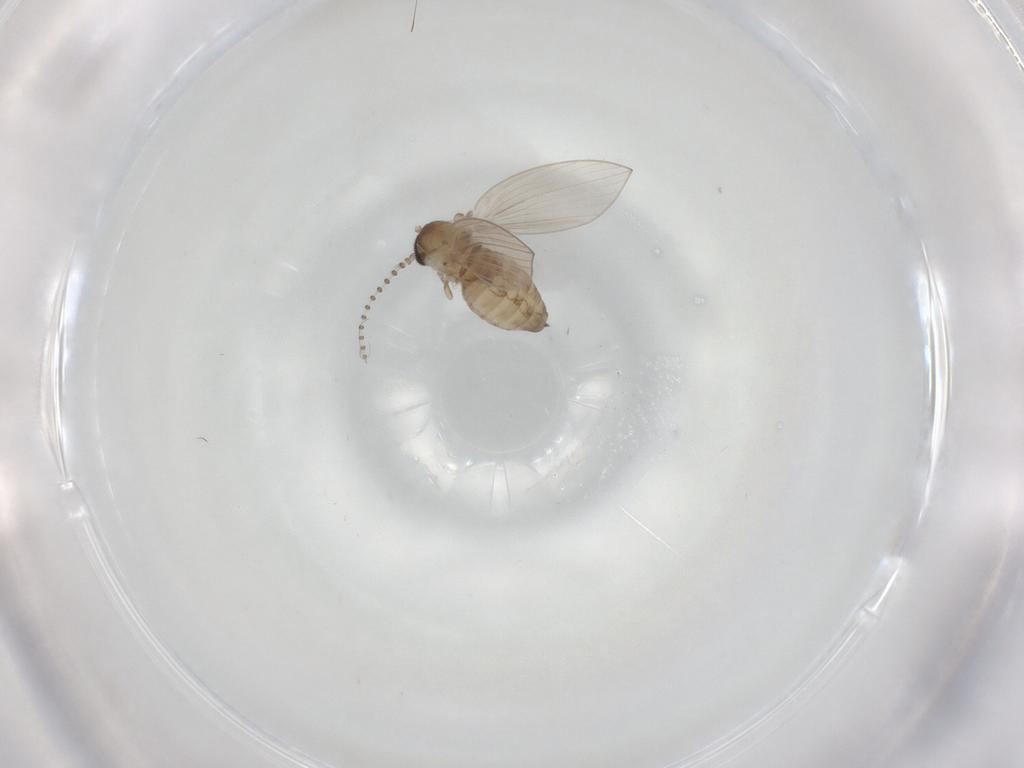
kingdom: Animalia
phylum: Arthropoda
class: Insecta
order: Diptera
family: Psychodidae
